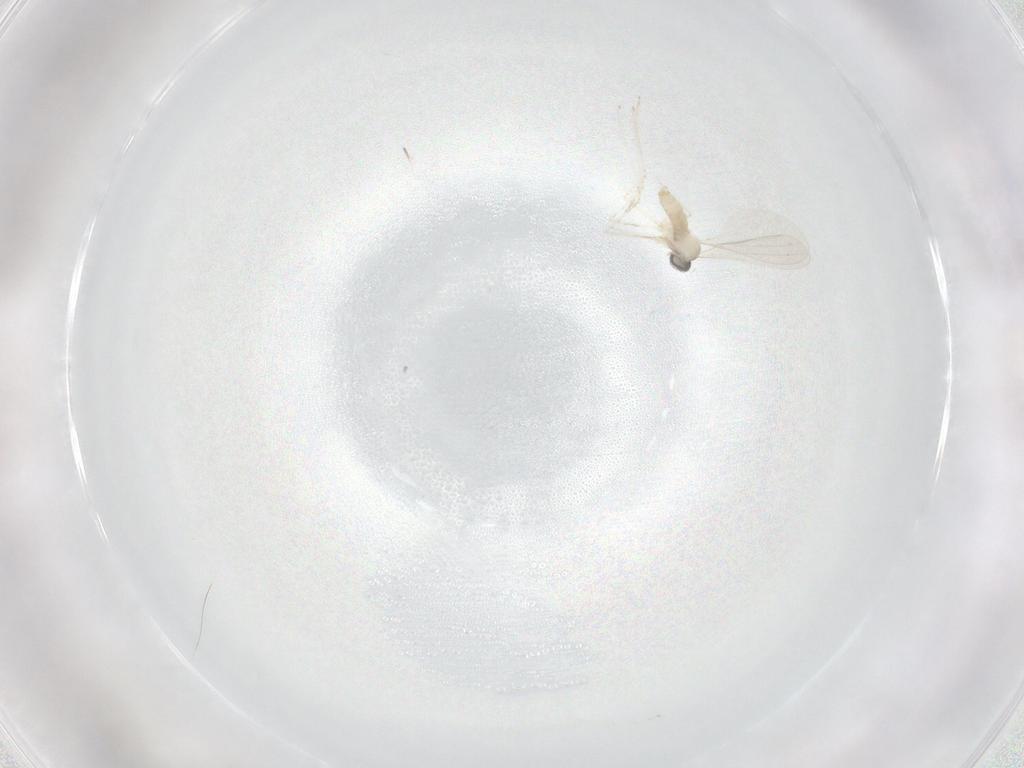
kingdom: Animalia
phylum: Arthropoda
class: Insecta
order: Diptera
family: Cecidomyiidae
